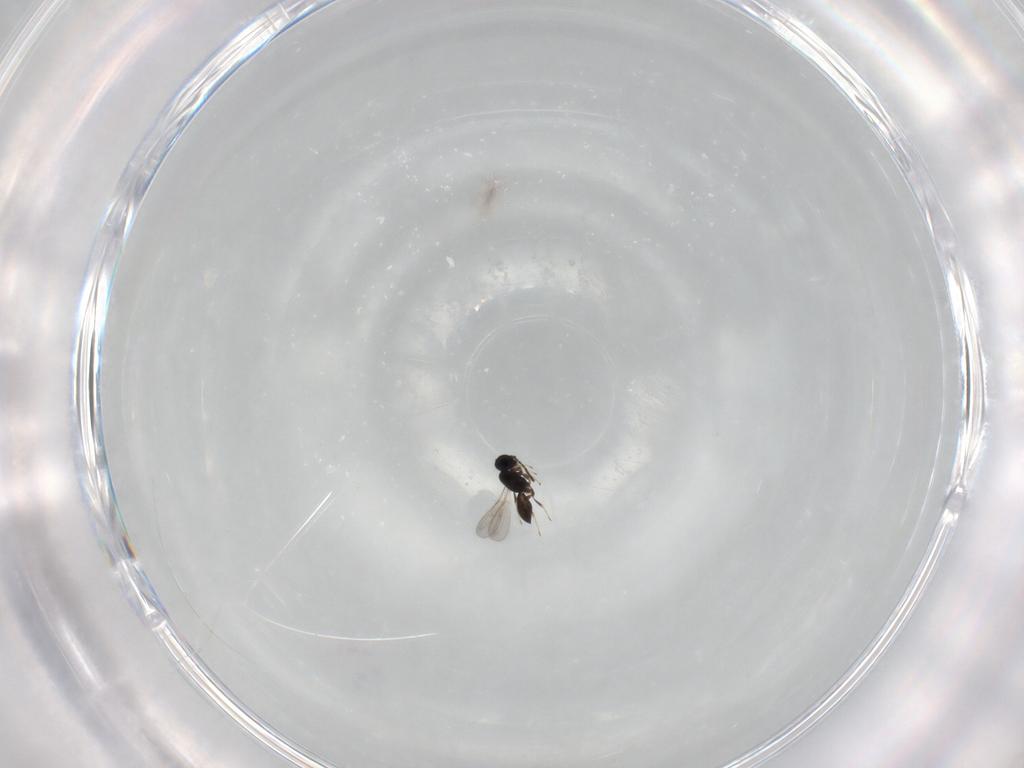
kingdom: Animalia
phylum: Arthropoda
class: Insecta
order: Hymenoptera
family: Scelionidae
